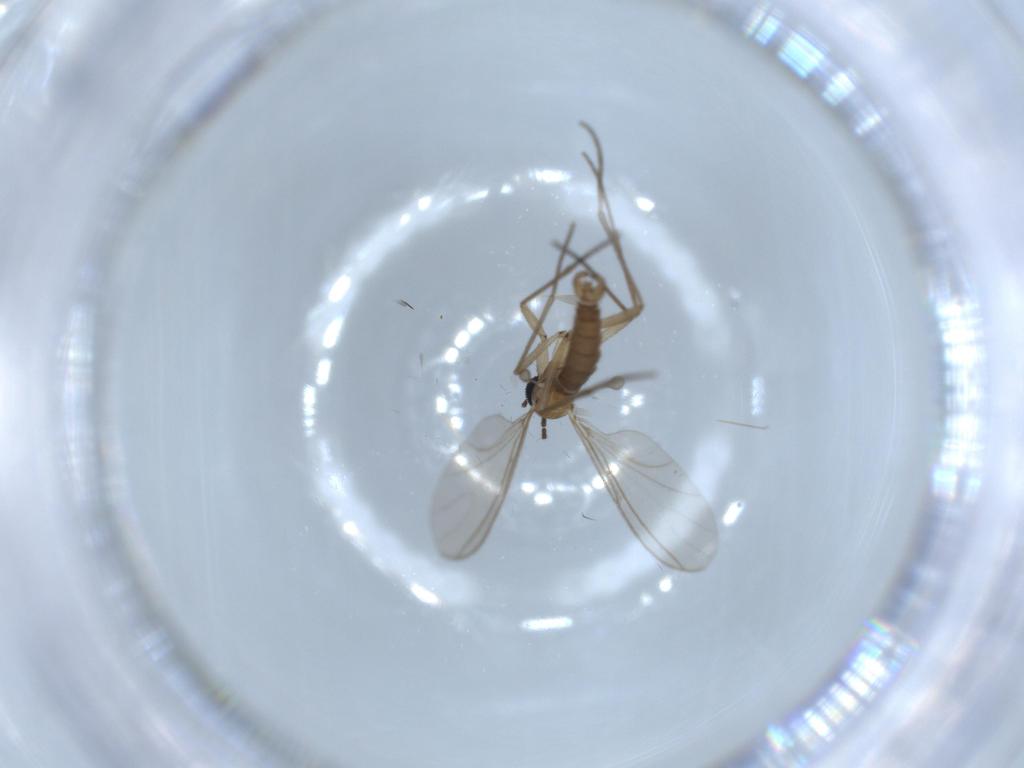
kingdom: Animalia
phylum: Arthropoda
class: Insecta
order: Diptera
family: Sciaridae
